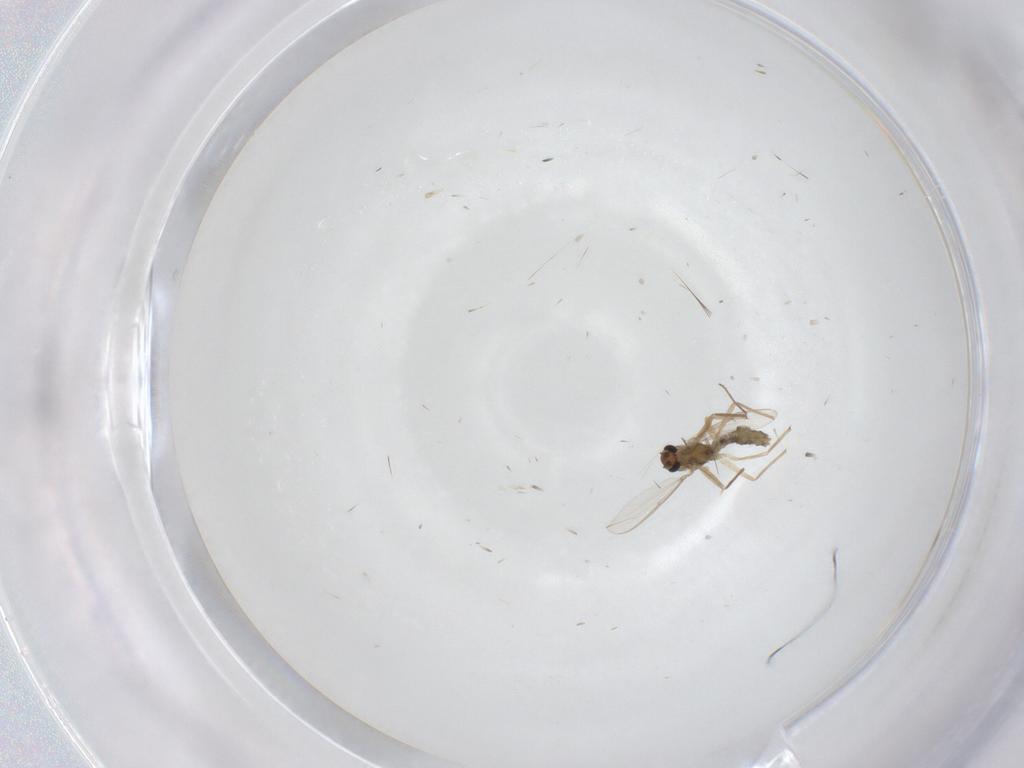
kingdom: Animalia
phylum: Arthropoda
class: Insecta
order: Diptera
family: Chironomidae
